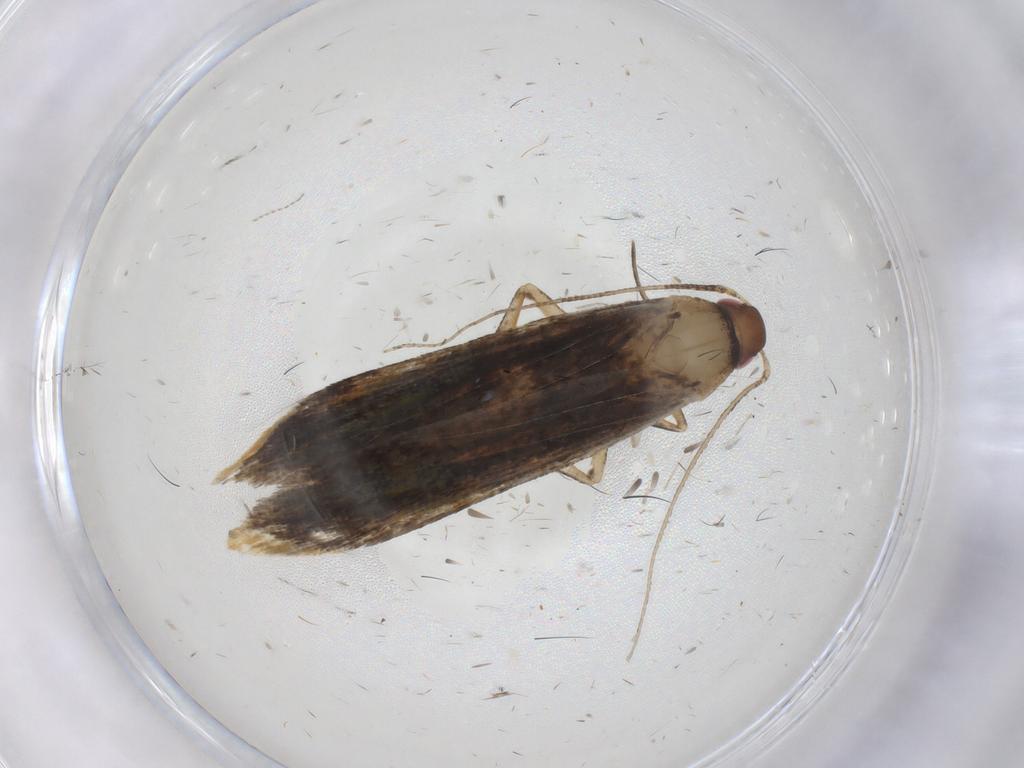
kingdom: Animalia
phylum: Arthropoda
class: Insecta
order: Lepidoptera
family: Gelechiidae
